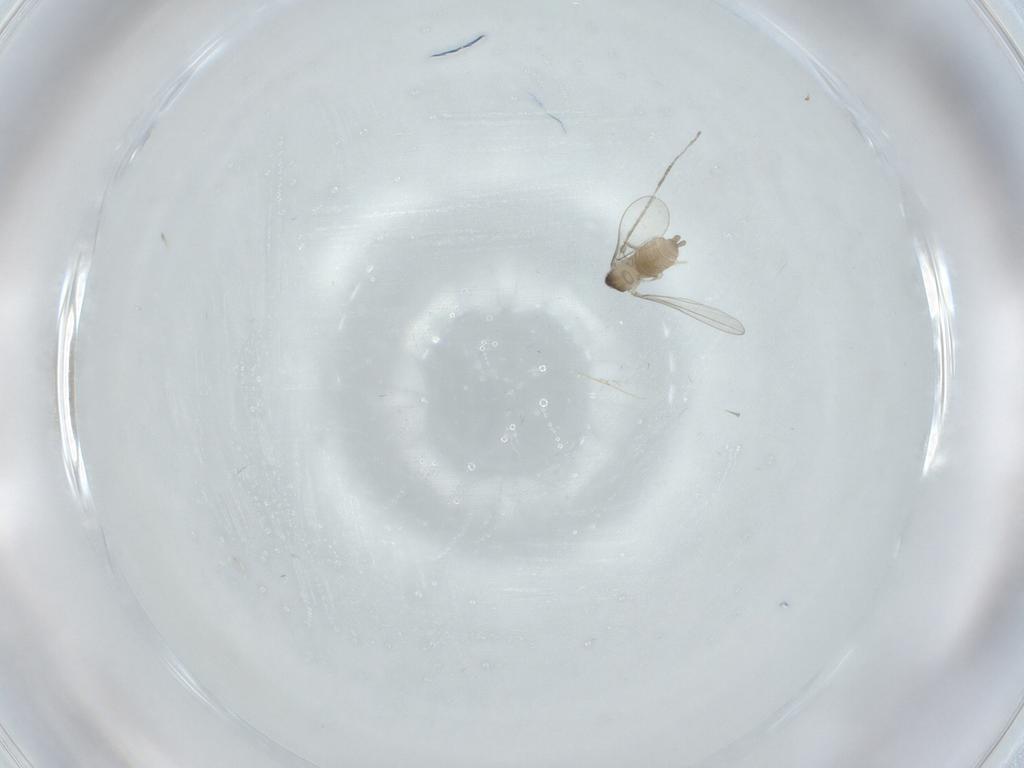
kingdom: Animalia
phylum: Arthropoda
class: Insecta
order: Diptera
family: Cecidomyiidae
